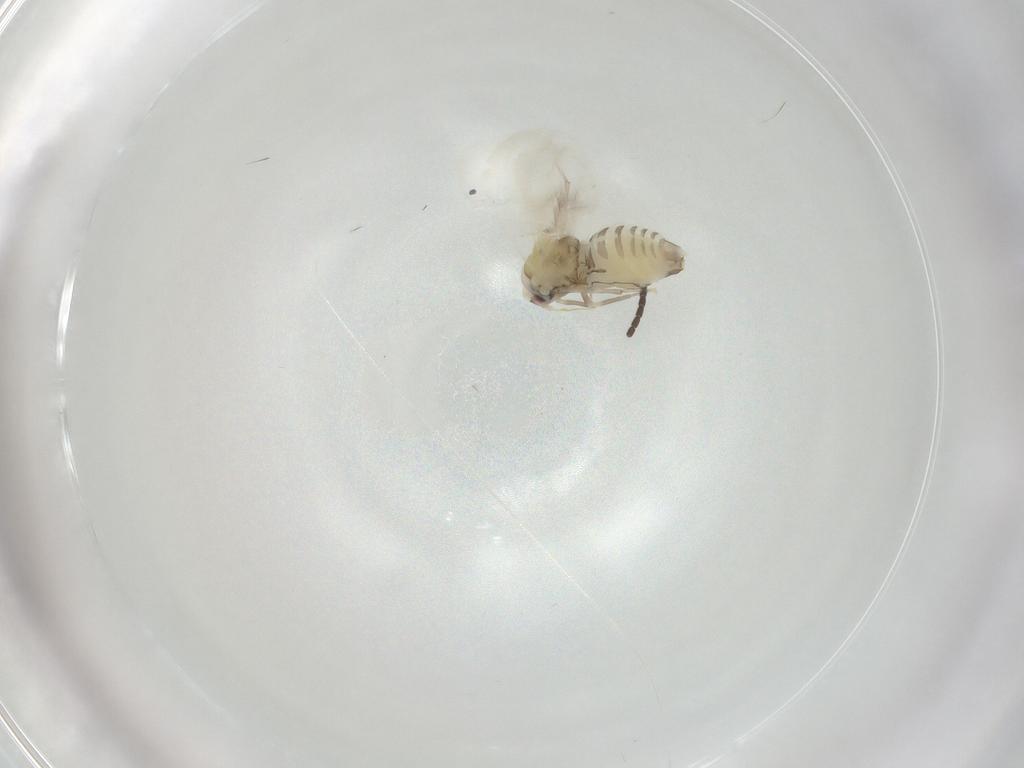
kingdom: Animalia
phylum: Arthropoda
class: Insecta
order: Hemiptera
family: Aleyrodidae
